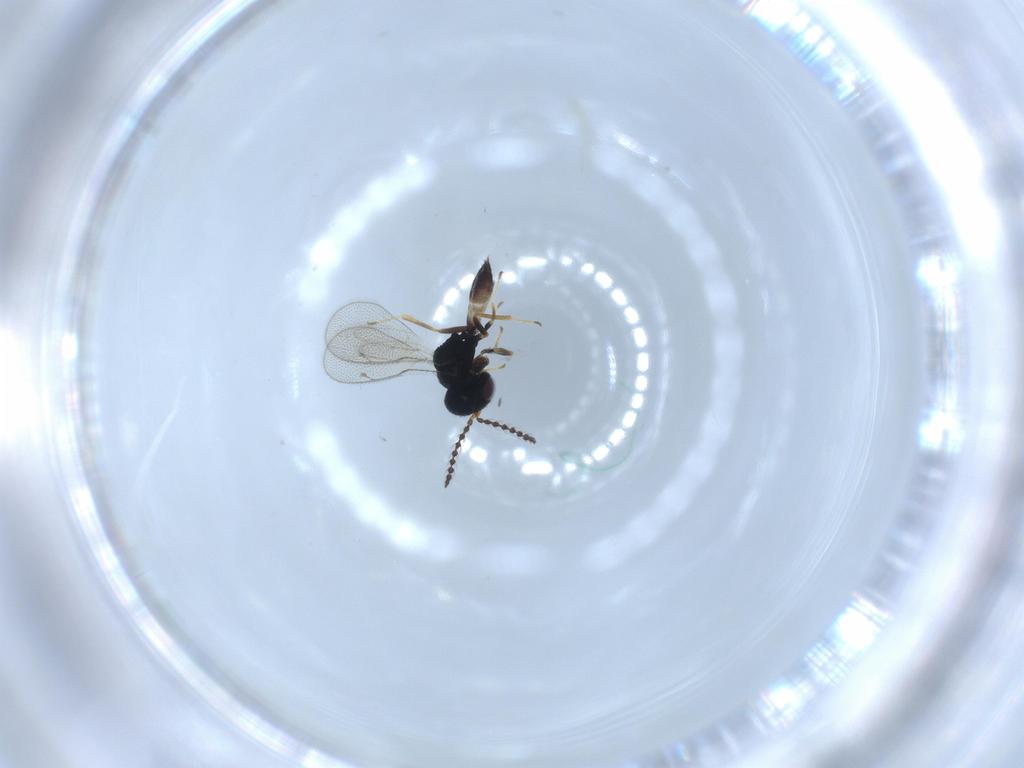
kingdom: Animalia
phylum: Arthropoda
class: Insecta
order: Hymenoptera
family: Pteromalidae
